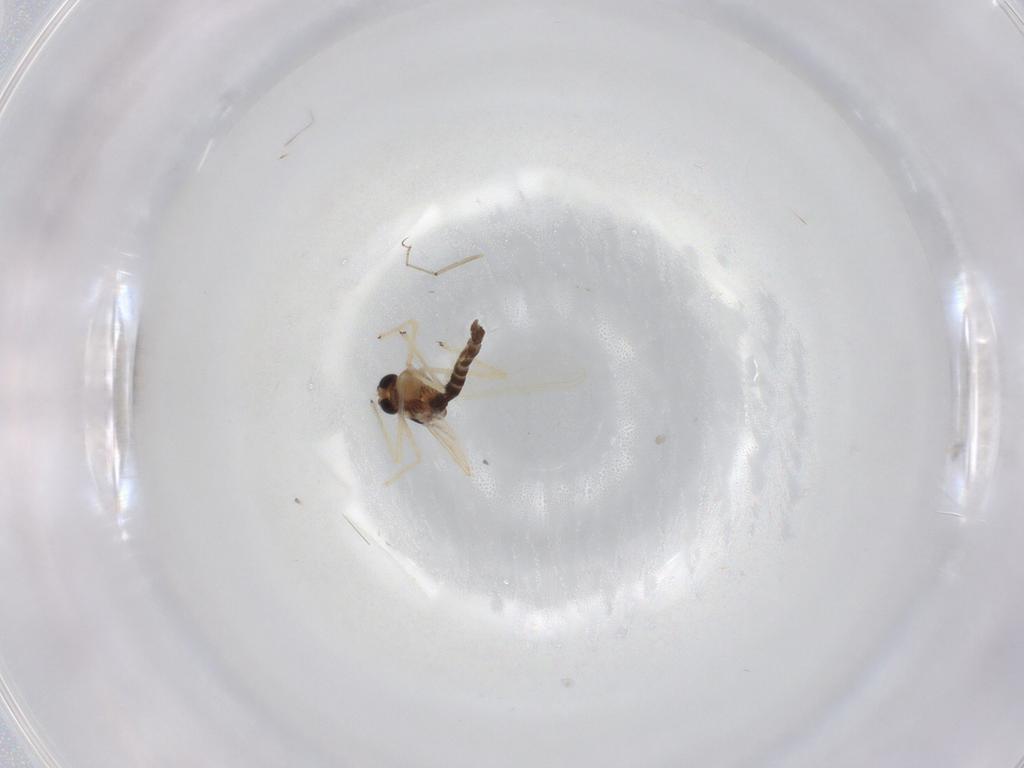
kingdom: Animalia
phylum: Arthropoda
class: Insecta
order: Diptera
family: Chironomidae
